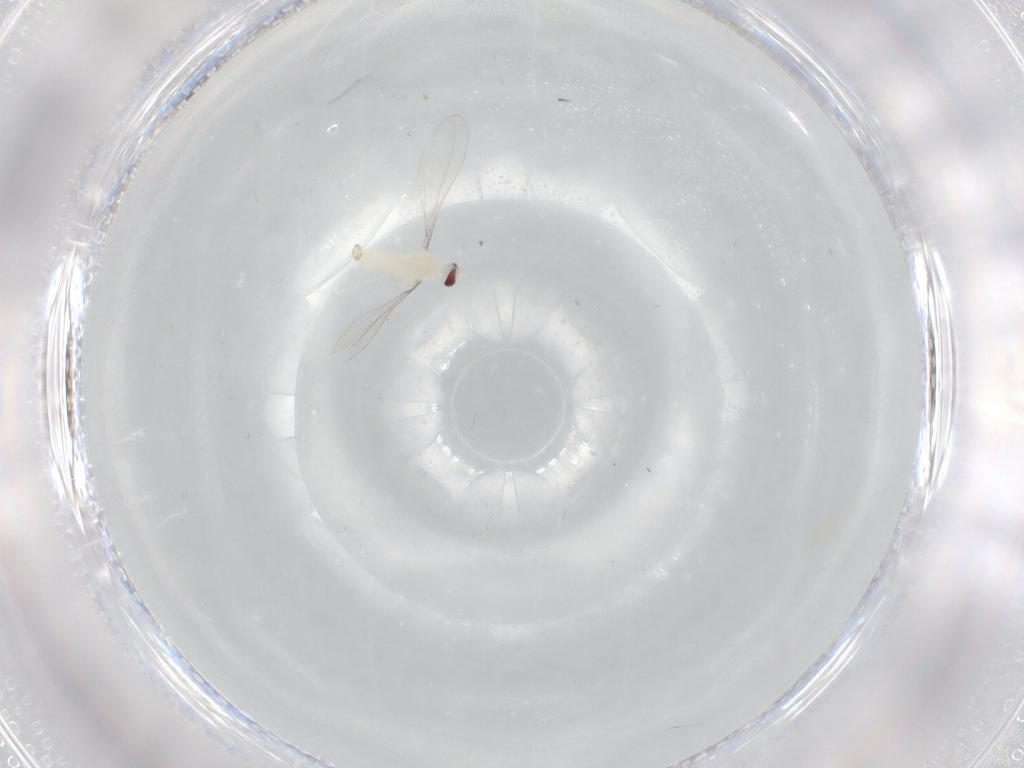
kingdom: Animalia
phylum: Arthropoda
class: Insecta
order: Diptera
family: Cecidomyiidae
